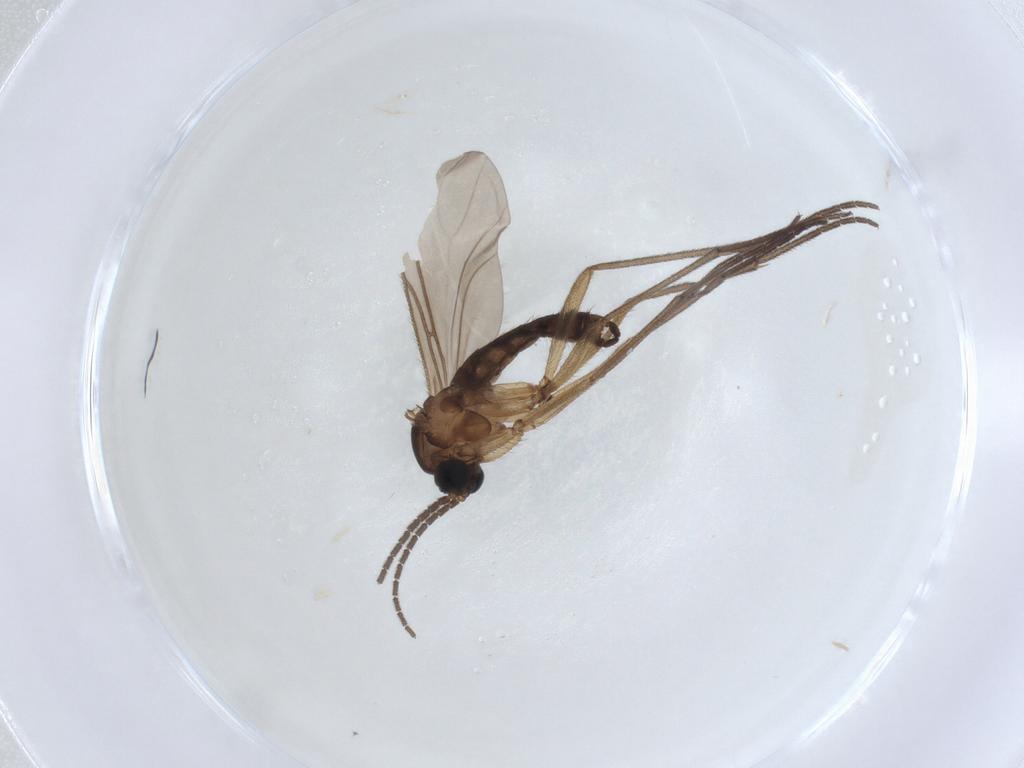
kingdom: Animalia
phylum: Arthropoda
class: Insecta
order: Diptera
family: Sciaridae
